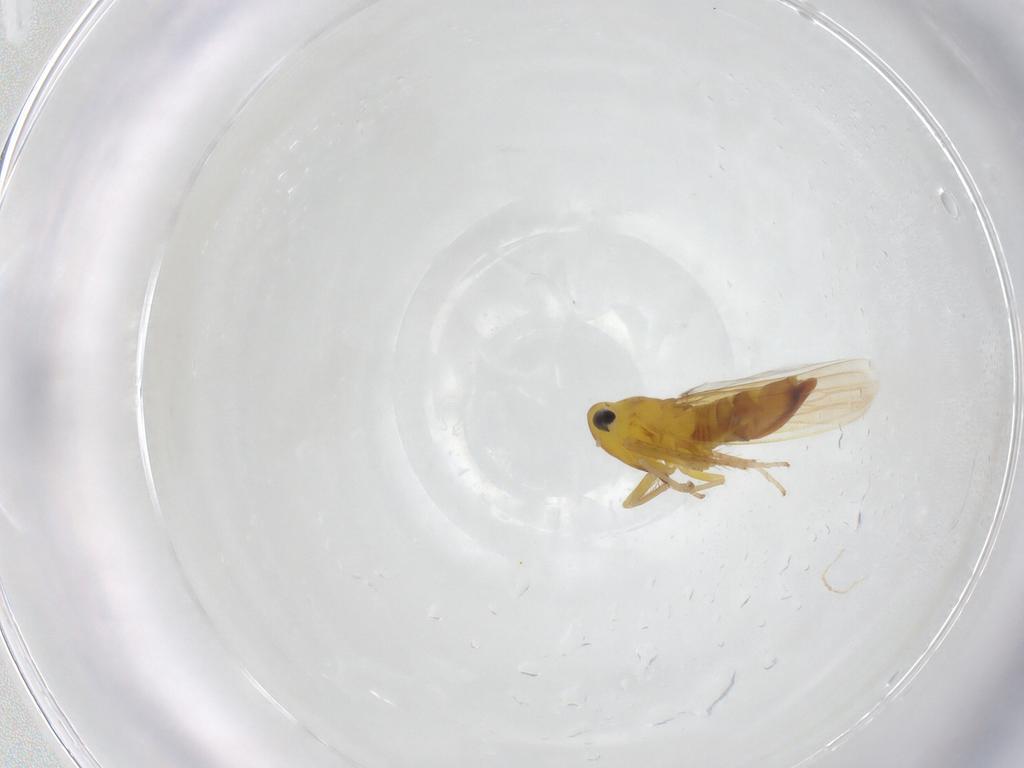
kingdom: Animalia
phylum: Arthropoda
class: Insecta
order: Hemiptera
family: Cicadellidae
